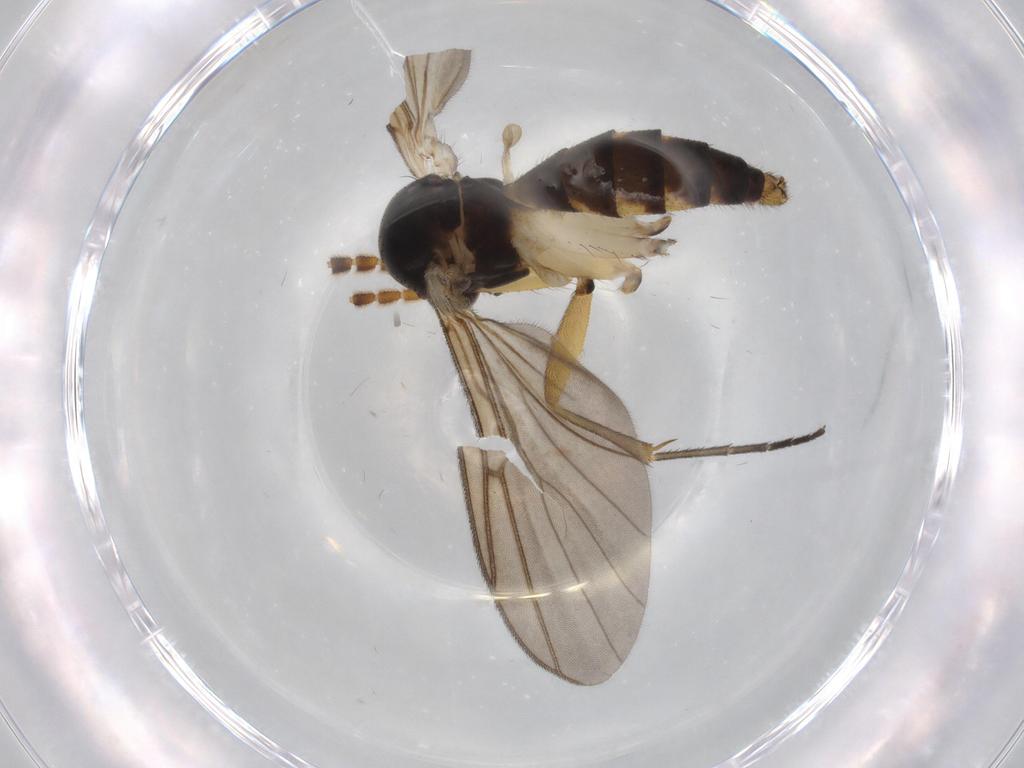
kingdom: Animalia
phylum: Arthropoda
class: Insecta
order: Diptera
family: Sciaridae
